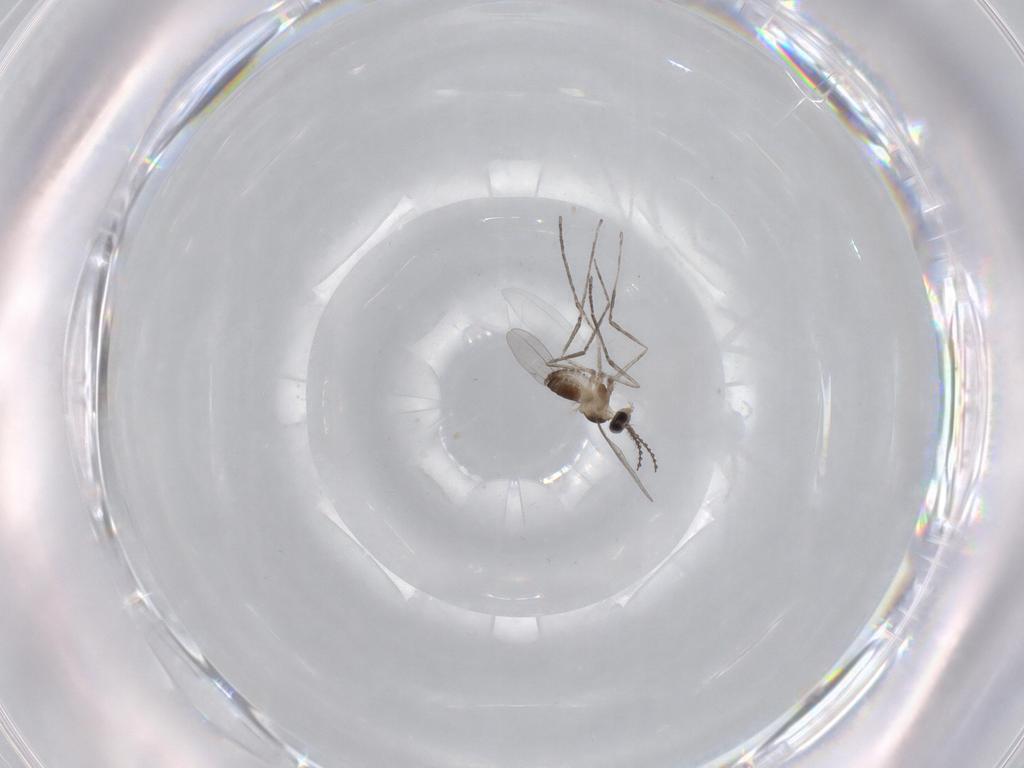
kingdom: Animalia
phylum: Arthropoda
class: Insecta
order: Diptera
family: Cecidomyiidae
